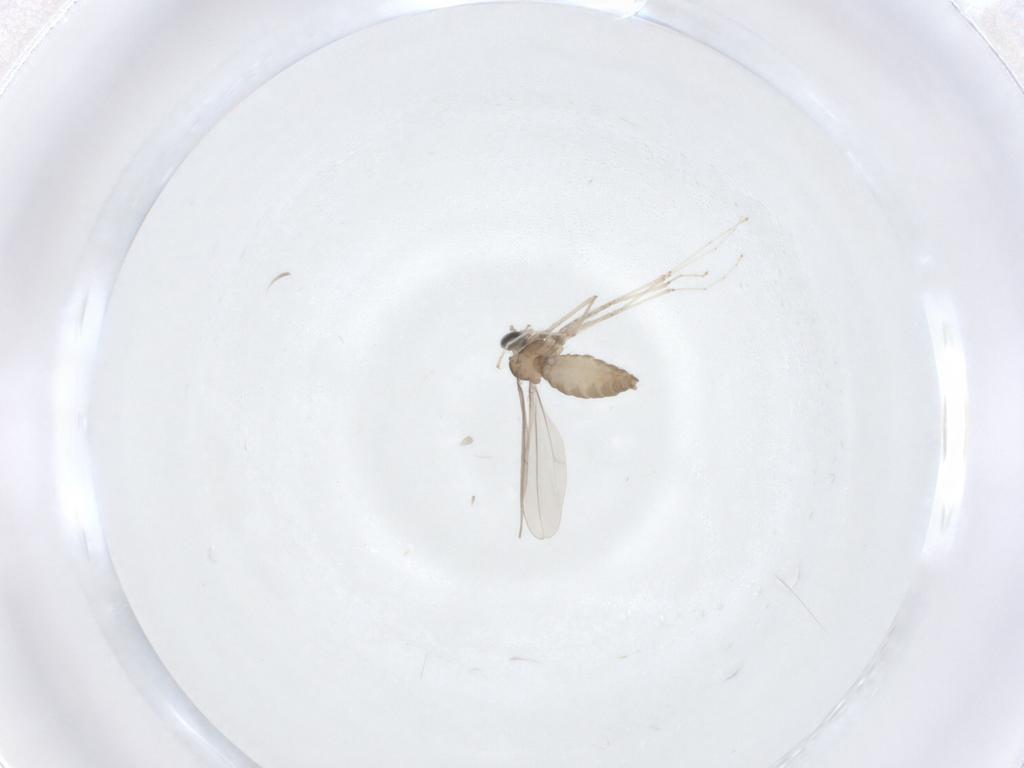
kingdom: Animalia
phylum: Arthropoda
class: Insecta
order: Diptera
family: Cecidomyiidae
